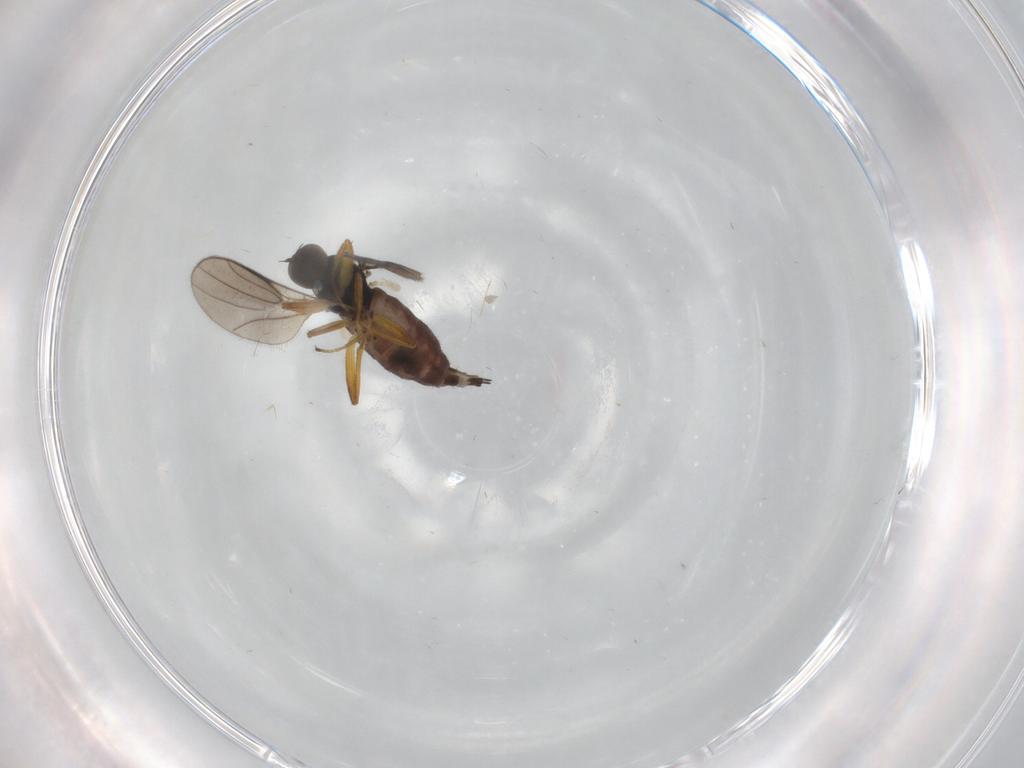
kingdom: Animalia
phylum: Arthropoda
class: Insecta
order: Diptera
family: Hybotidae
